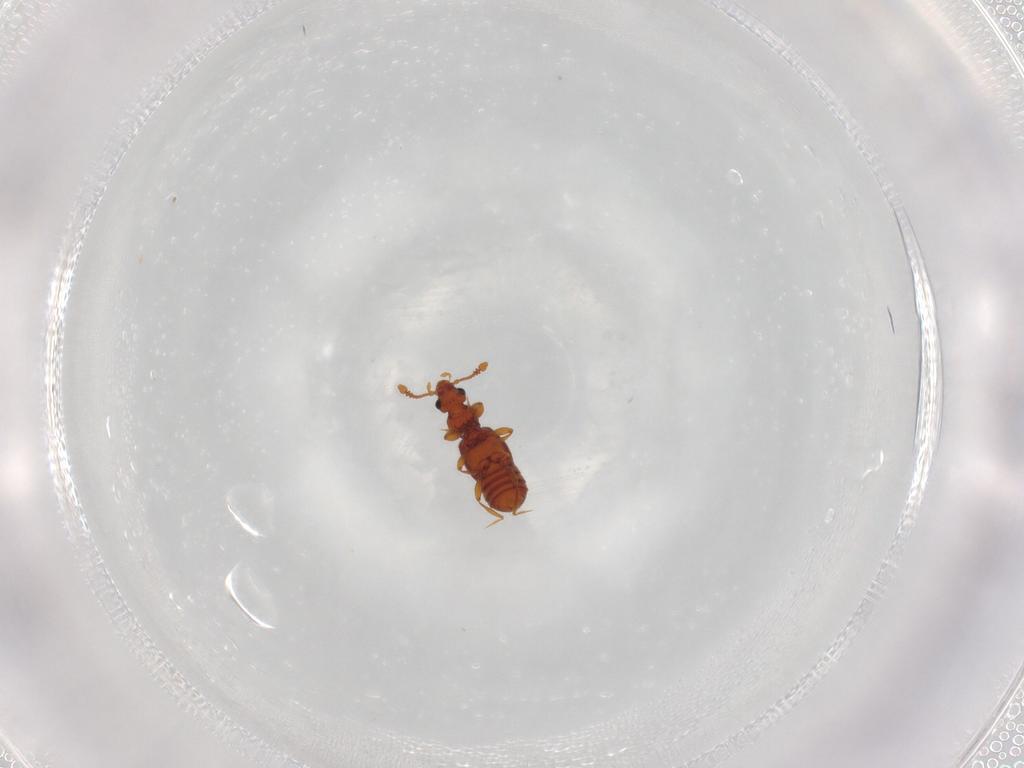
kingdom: Animalia
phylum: Arthropoda
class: Insecta
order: Coleoptera
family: Staphylinidae
